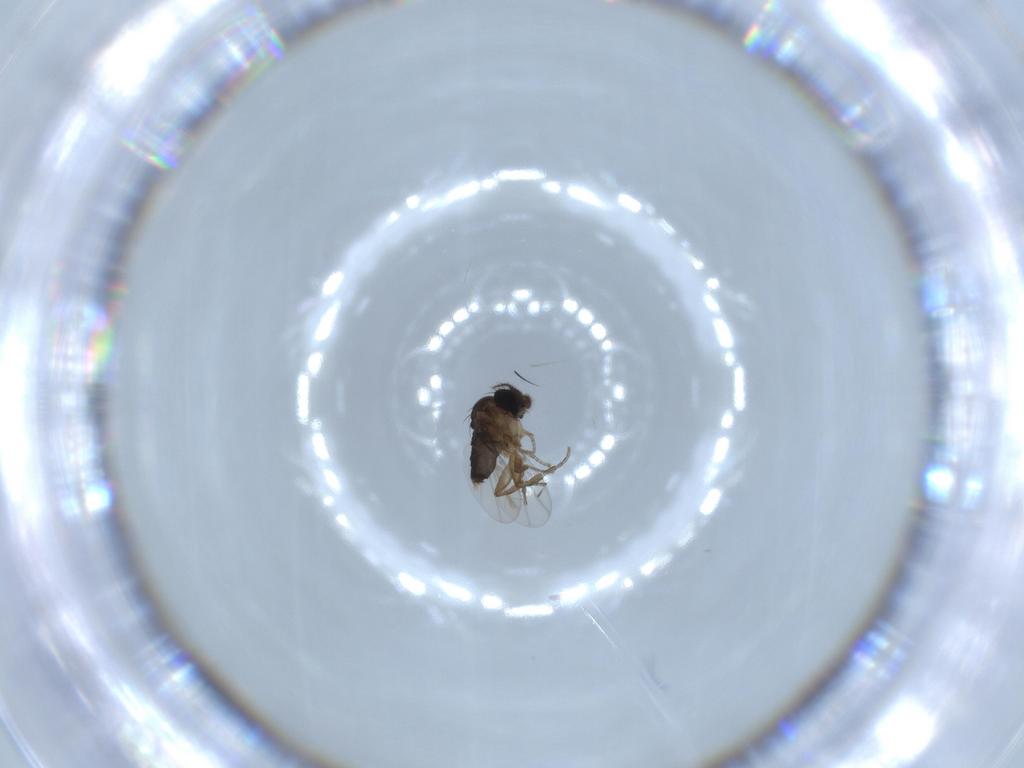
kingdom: Animalia
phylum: Arthropoda
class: Insecta
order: Diptera
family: Phoridae
